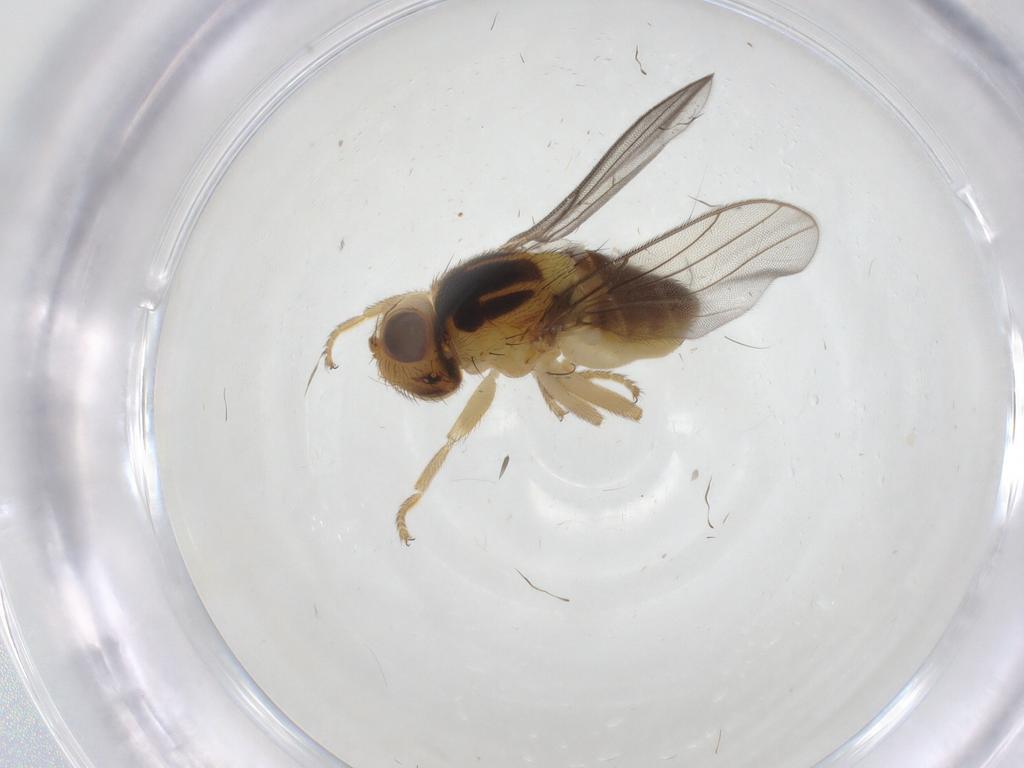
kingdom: Animalia
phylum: Arthropoda
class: Insecta
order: Diptera
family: Chloropidae
